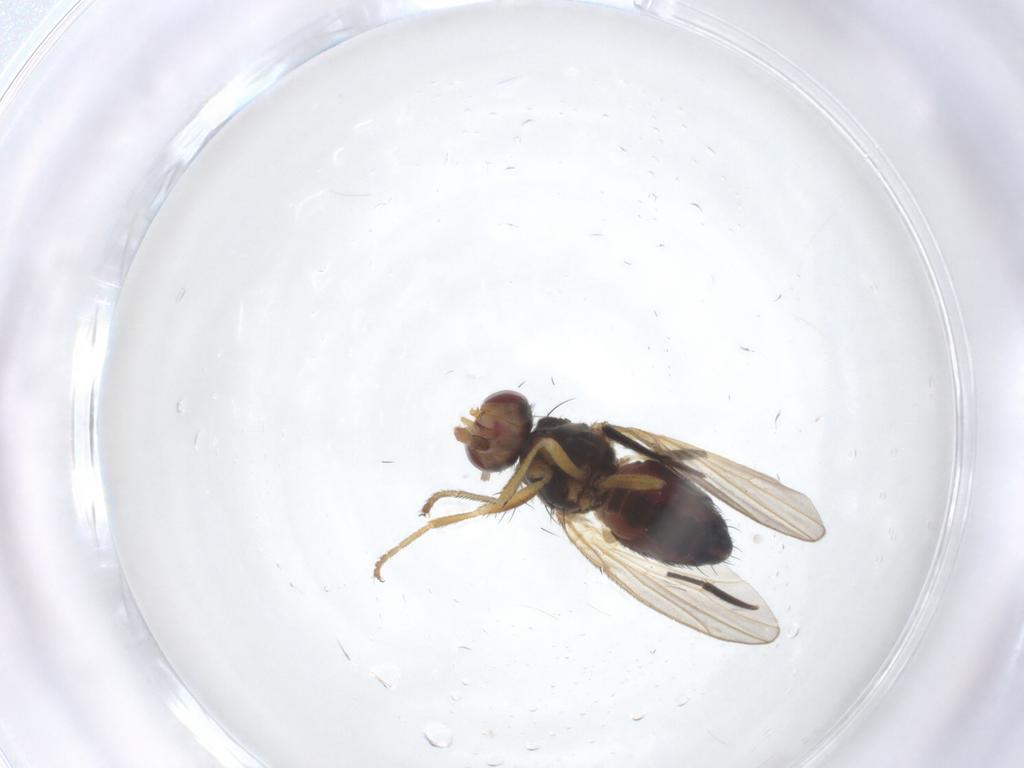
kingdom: Animalia
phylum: Arthropoda
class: Insecta
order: Diptera
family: Heleomyzidae
